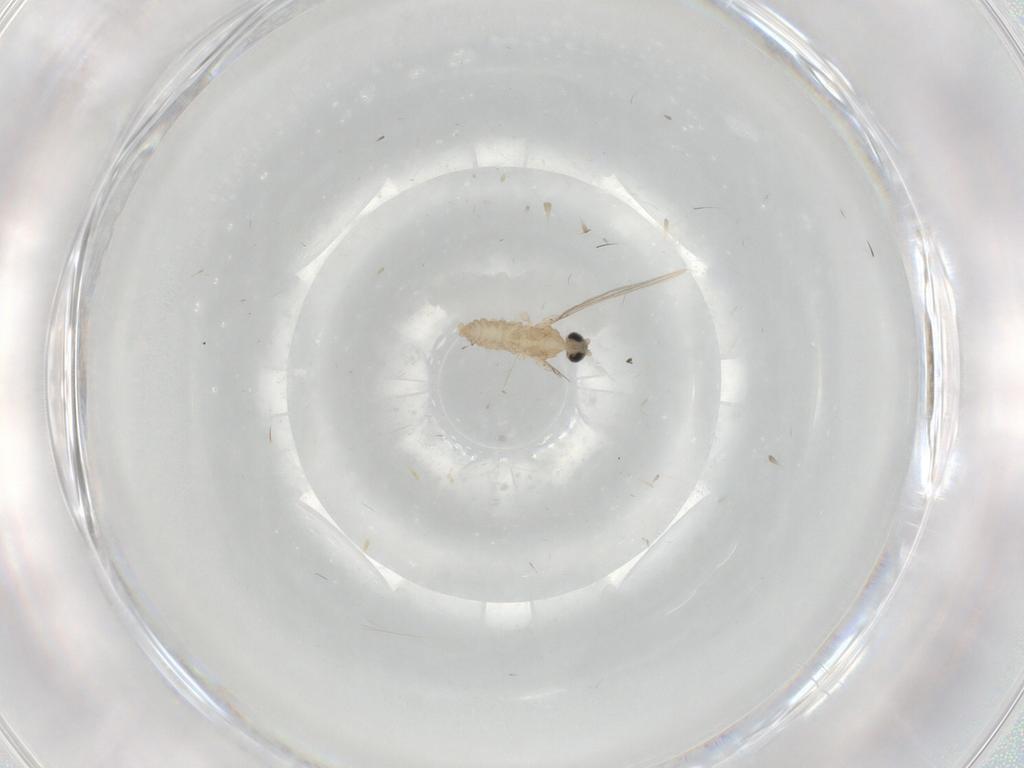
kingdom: Animalia
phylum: Arthropoda
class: Insecta
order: Diptera
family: Cecidomyiidae
